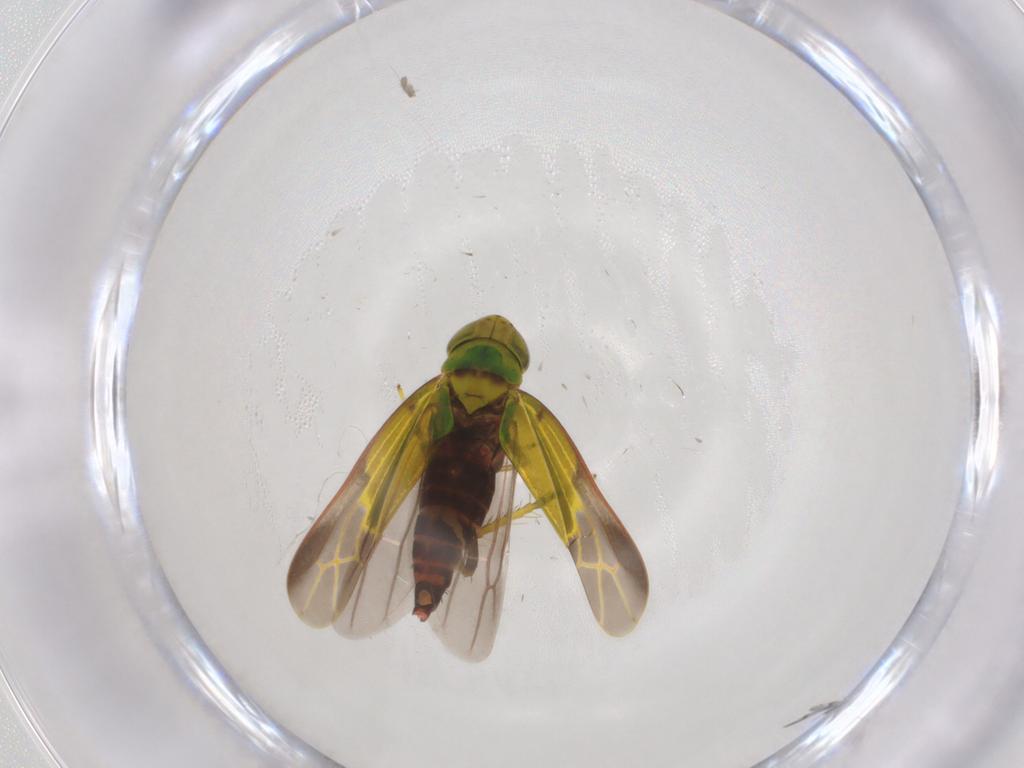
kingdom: Animalia
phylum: Arthropoda
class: Insecta
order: Hemiptera
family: Cicadellidae
